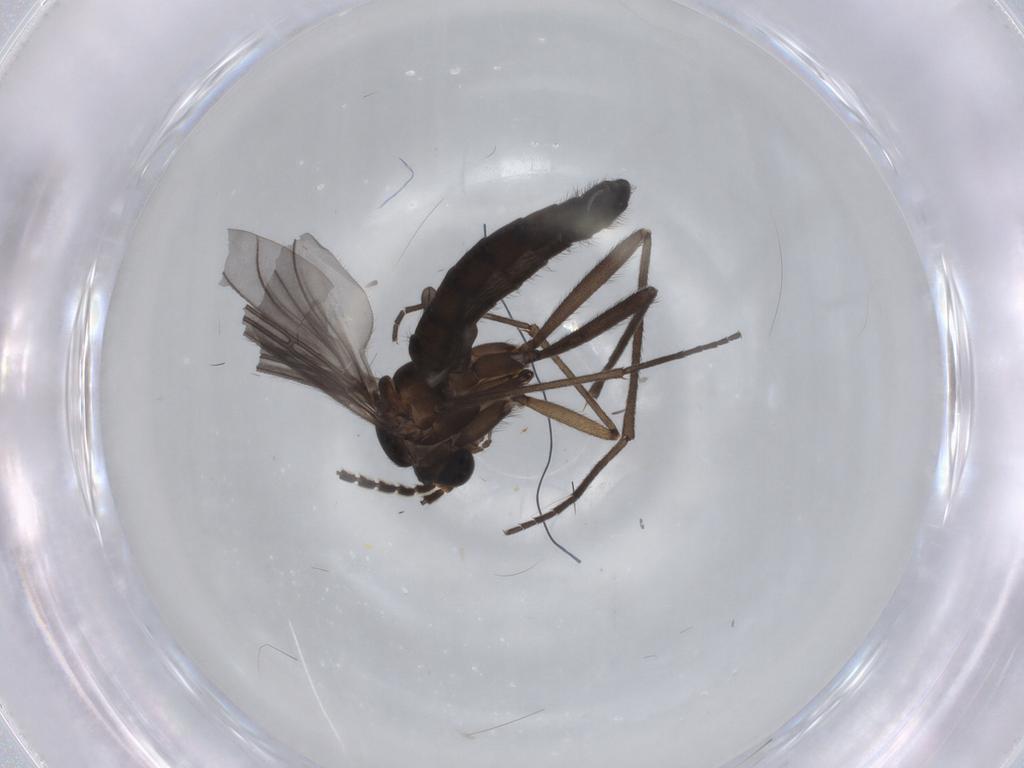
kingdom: Animalia
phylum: Arthropoda
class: Insecta
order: Diptera
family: Sciaridae
